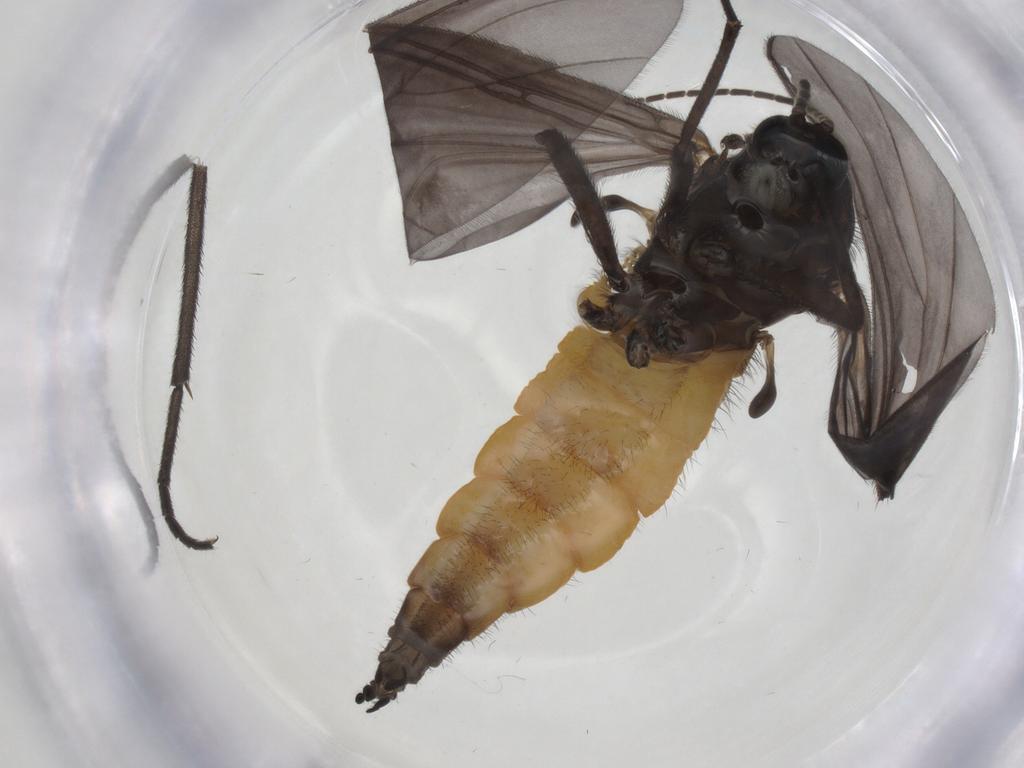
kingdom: Animalia
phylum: Arthropoda
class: Insecta
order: Diptera
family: Sciaridae
